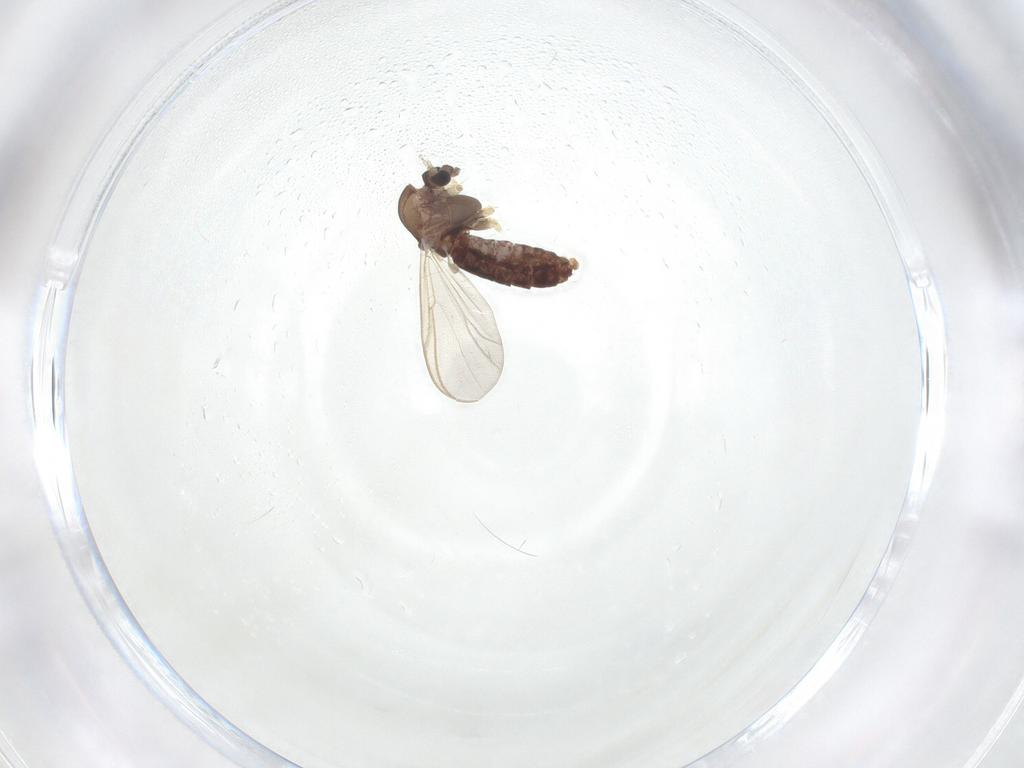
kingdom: Animalia
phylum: Arthropoda
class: Insecta
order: Diptera
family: Chironomidae
